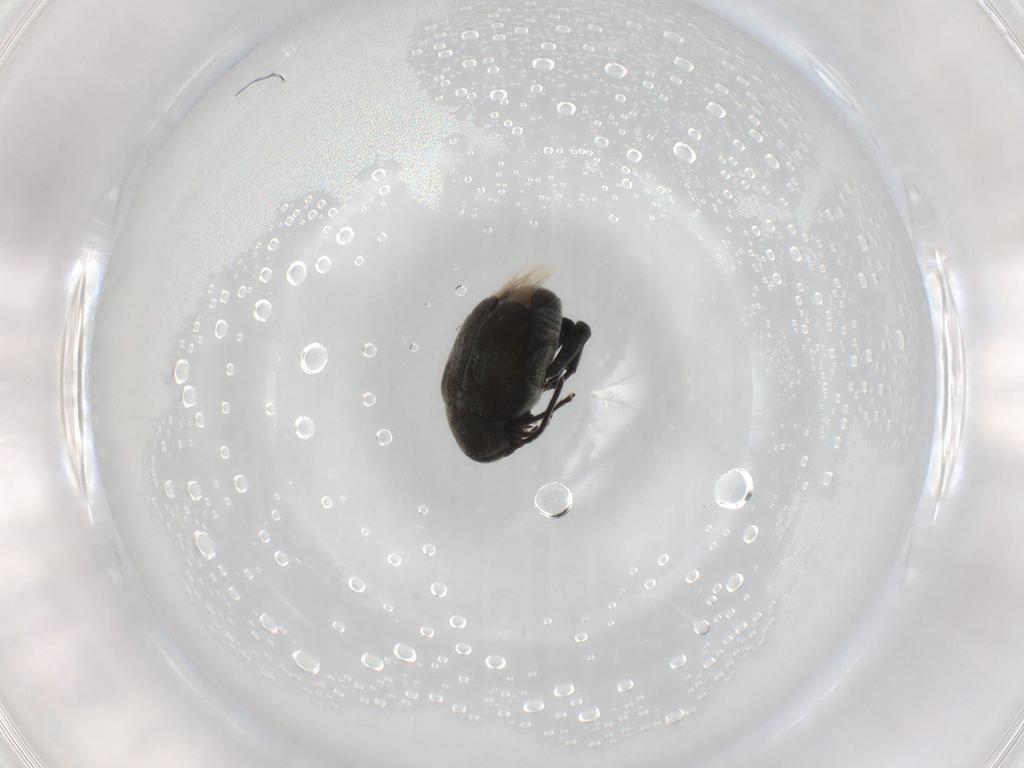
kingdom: Animalia
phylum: Arthropoda
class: Insecta
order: Coleoptera
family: Chrysomelidae
